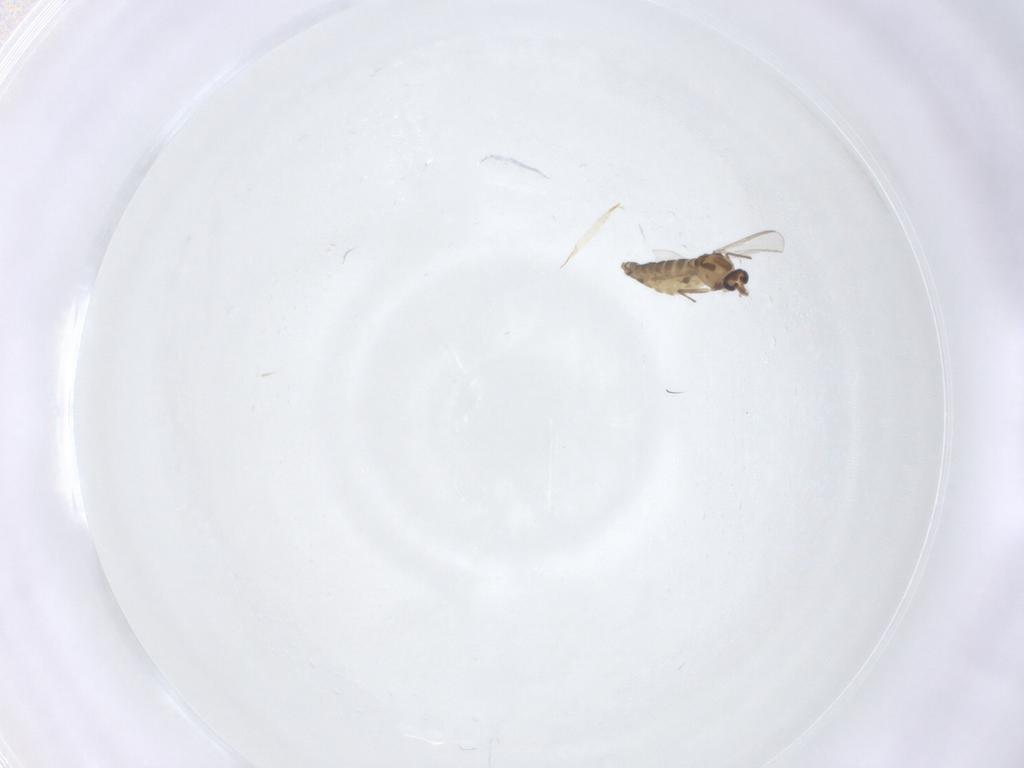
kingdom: Animalia
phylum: Arthropoda
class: Insecta
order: Diptera
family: Chironomidae
